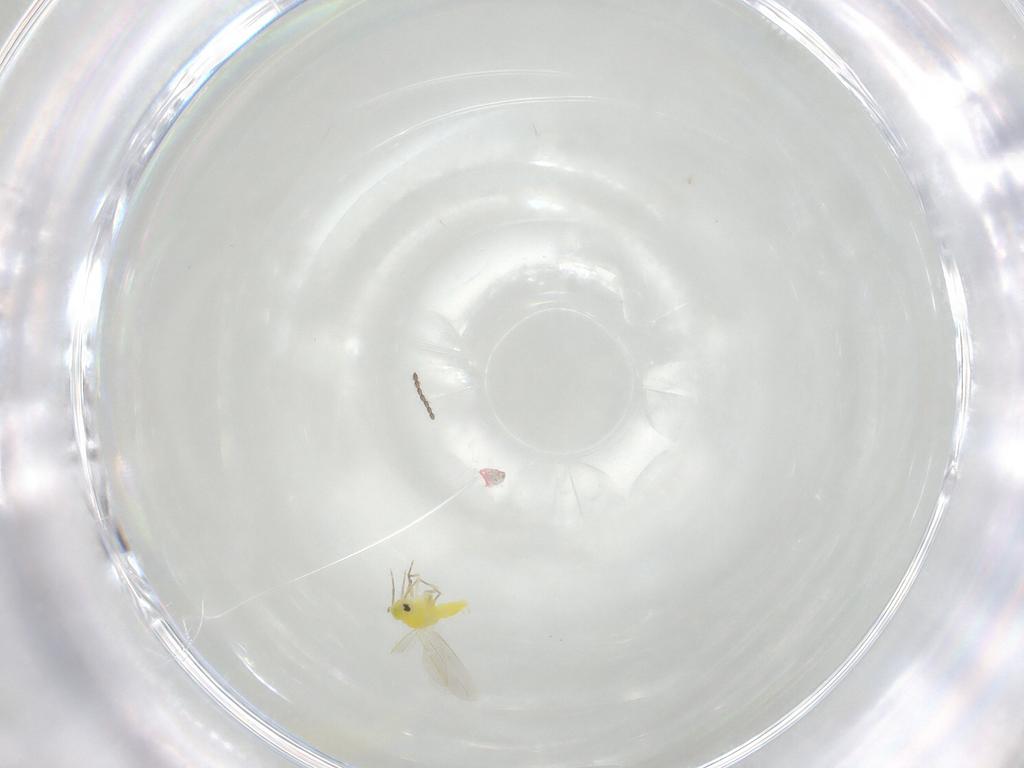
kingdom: Animalia
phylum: Arthropoda
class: Insecta
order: Hemiptera
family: Aleyrodidae
